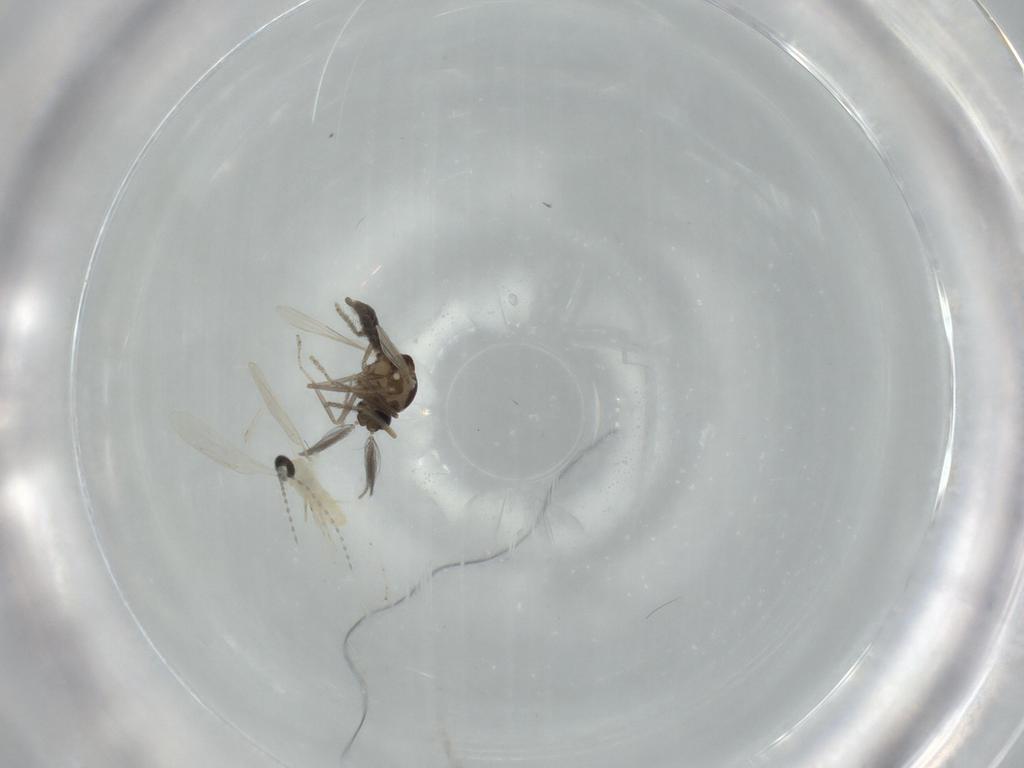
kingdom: Animalia
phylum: Arthropoda
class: Insecta
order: Diptera
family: Ceratopogonidae
